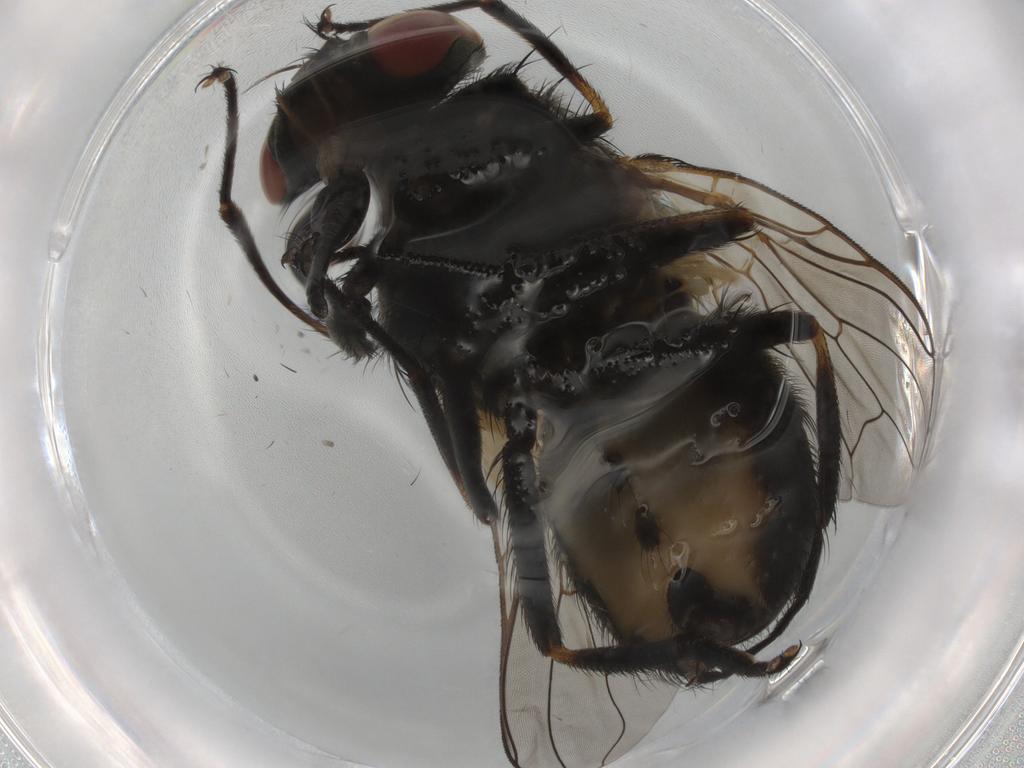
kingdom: Animalia
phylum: Arthropoda
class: Insecta
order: Diptera
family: Muscidae
